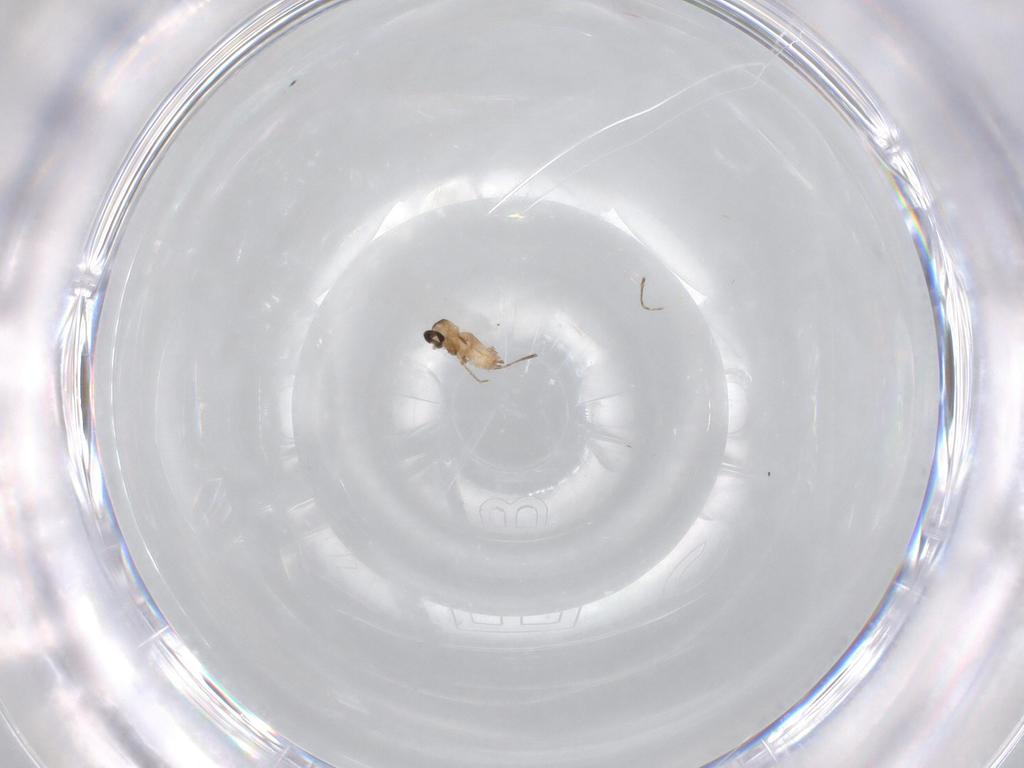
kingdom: Animalia
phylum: Arthropoda
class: Insecta
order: Diptera
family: Cecidomyiidae
